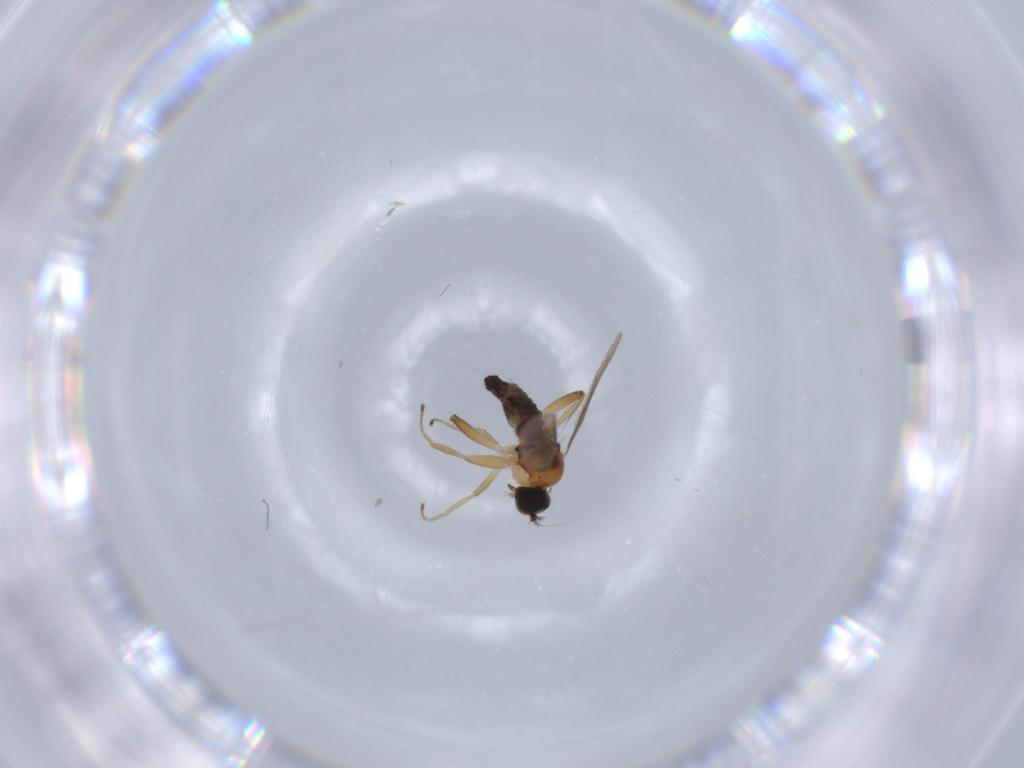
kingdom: Animalia
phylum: Arthropoda
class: Insecta
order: Diptera
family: Hybotidae
